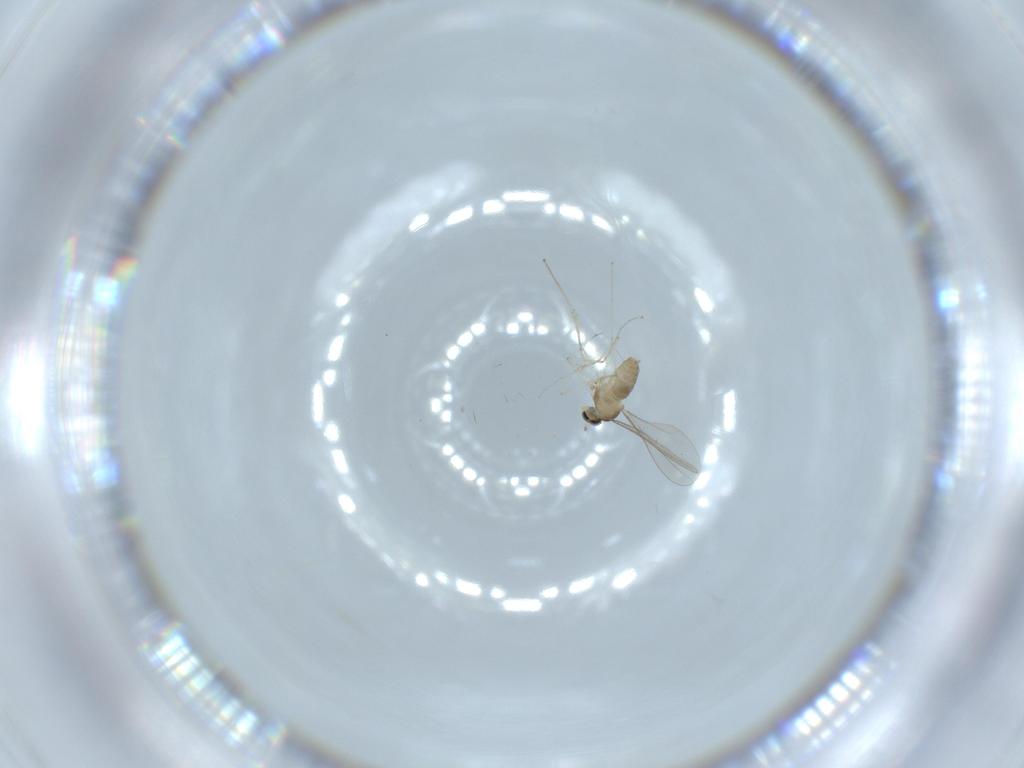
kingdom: Animalia
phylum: Arthropoda
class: Insecta
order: Diptera
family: Cecidomyiidae
